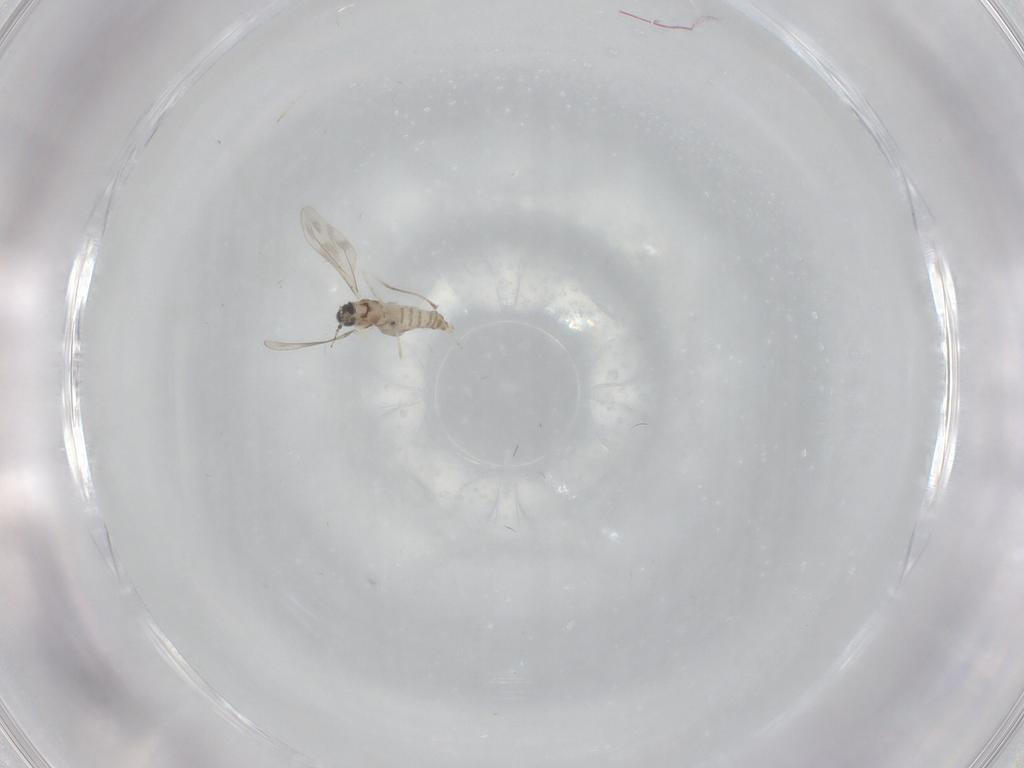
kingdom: Animalia
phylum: Arthropoda
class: Insecta
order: Diptera
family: Cecidomyiidae
